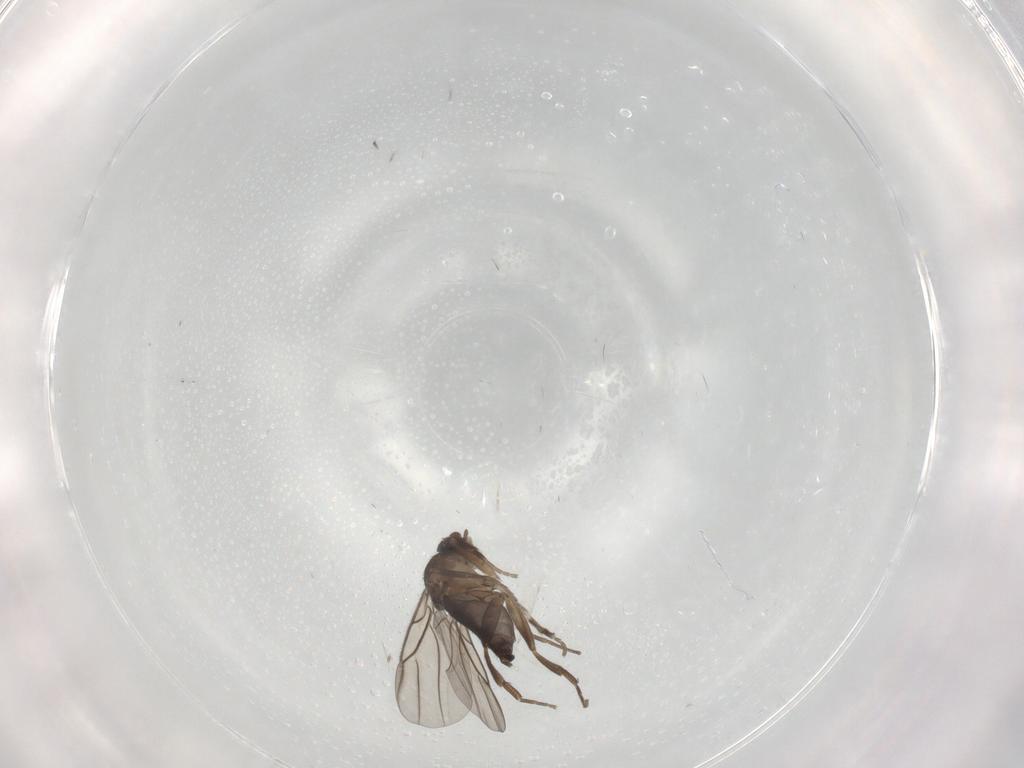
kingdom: Animalia
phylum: Arthropoda
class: Insecta
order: Diptera
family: Phoridae
